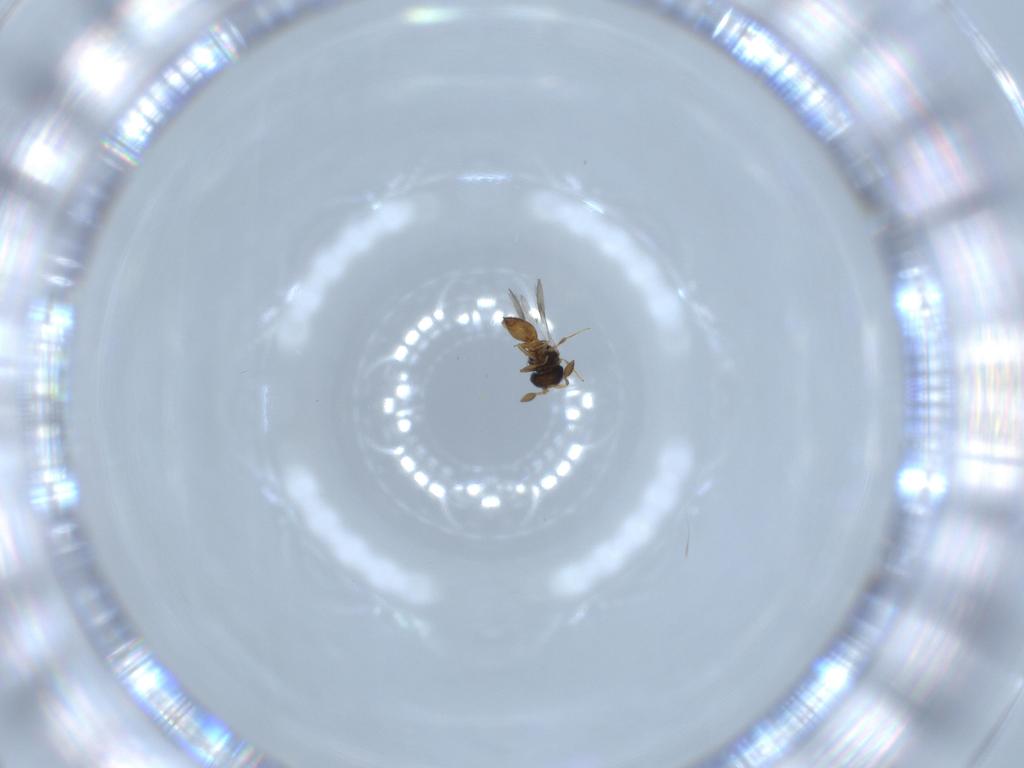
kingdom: Animalia
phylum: Arthropoda
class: Insecta
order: Hymenoptera
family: Scelionidae
